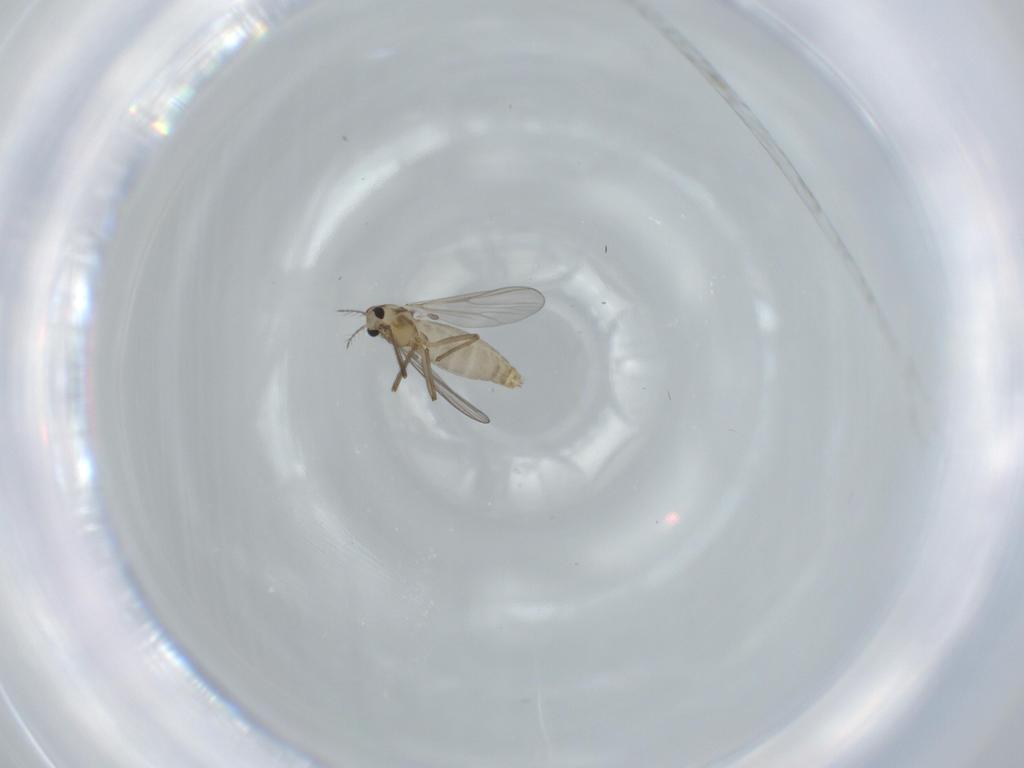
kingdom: Animalia
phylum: Arthropoda
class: Insecta
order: Diptera
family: Chironomidae
